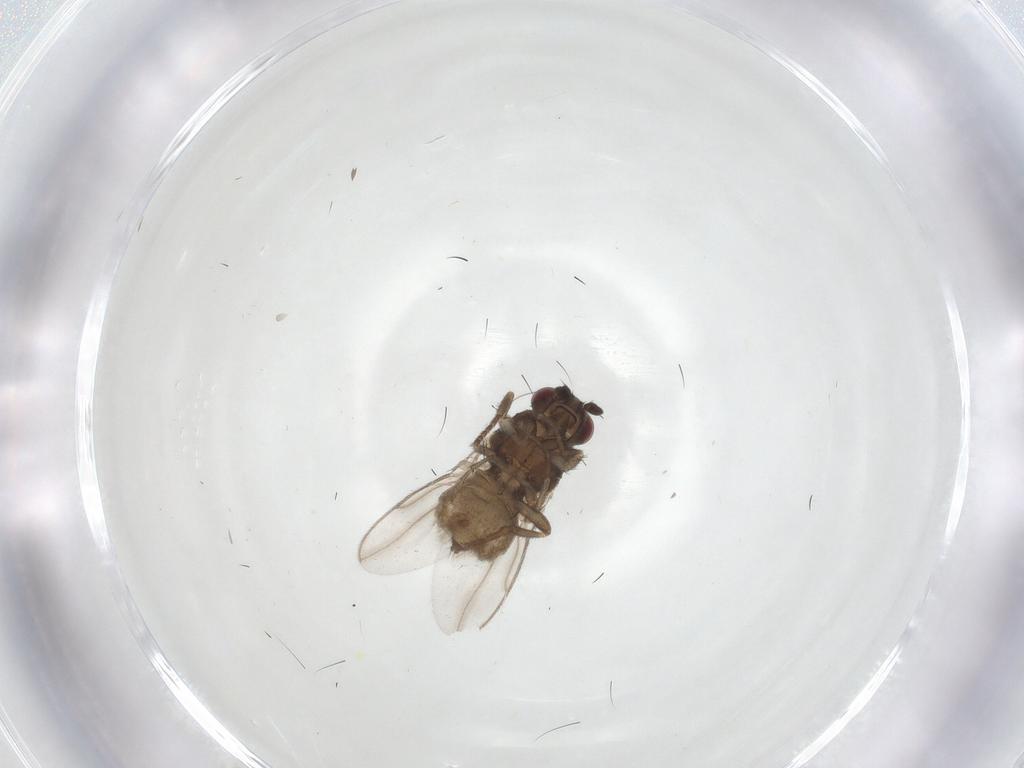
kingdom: Animalia
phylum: Arthropoda
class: Insecta
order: Diptera
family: Sphaeroceridae
